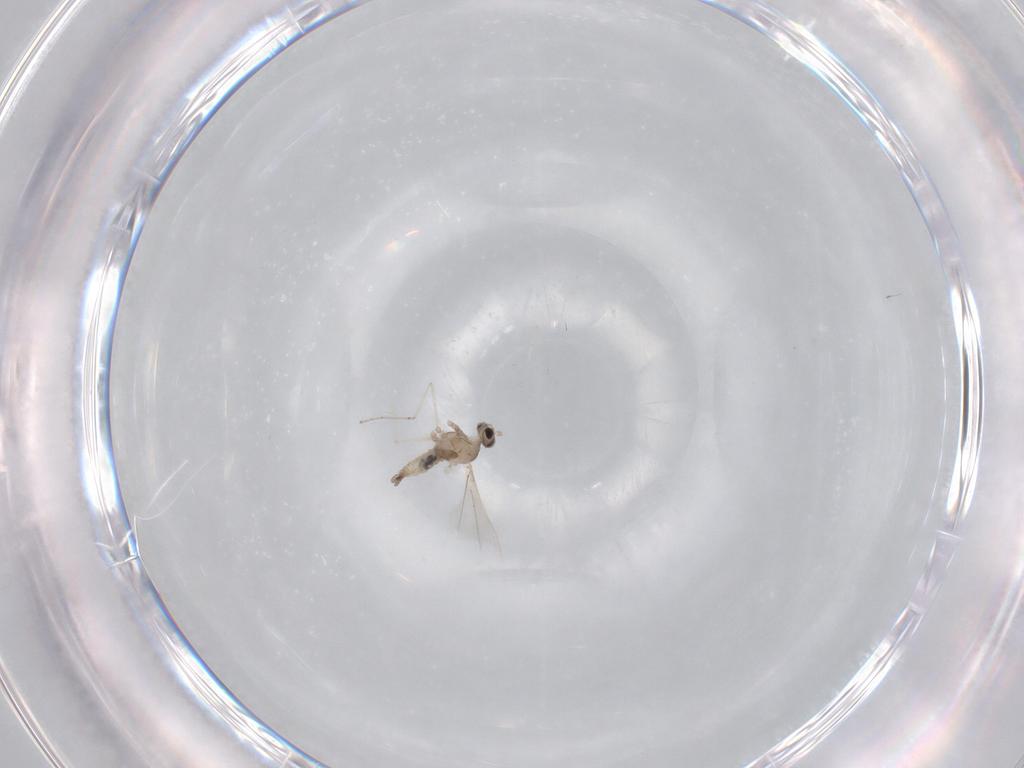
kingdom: Animalia
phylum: Arthropoda
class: Insecta
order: Diptera
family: Cecidomyiidae
